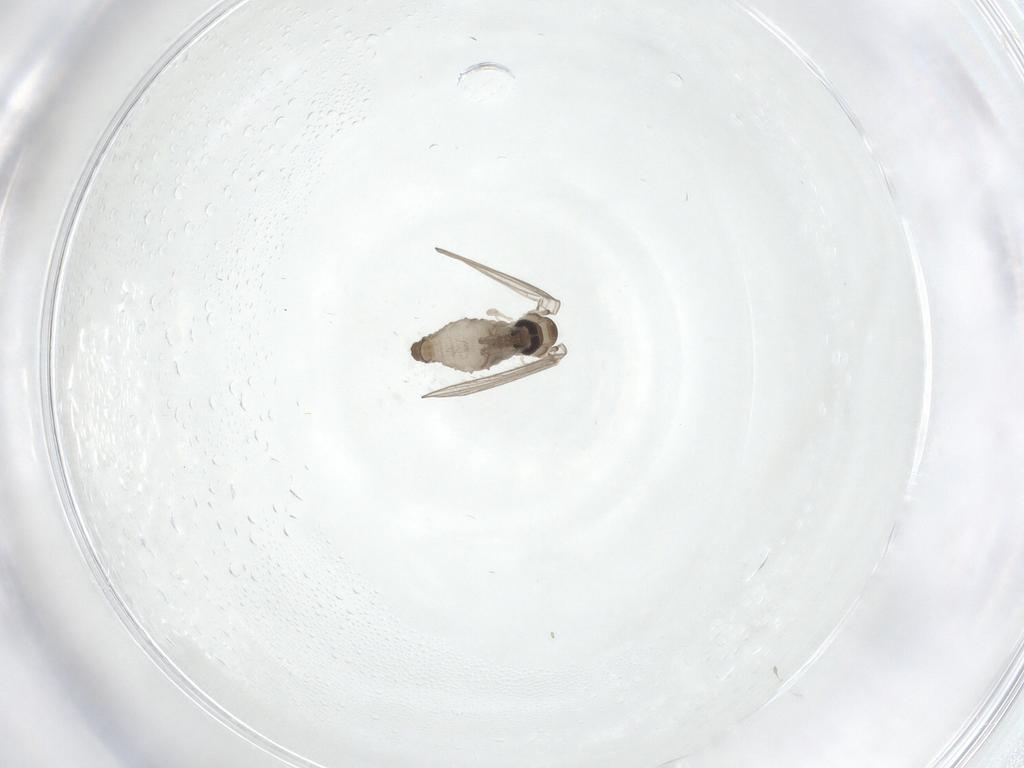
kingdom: Animalia
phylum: Arthropoda
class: Insecta
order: Diptera
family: Psychodidae
